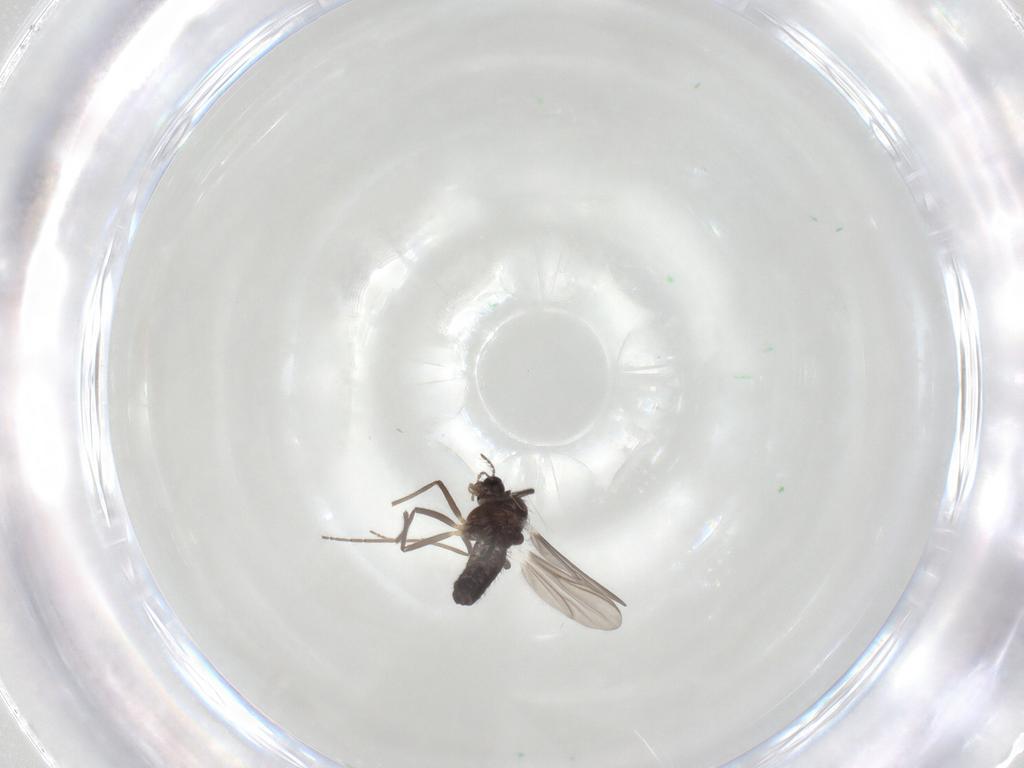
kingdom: Animalia
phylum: Arthropoda
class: Insecta
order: Diptera
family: Chironomidae
